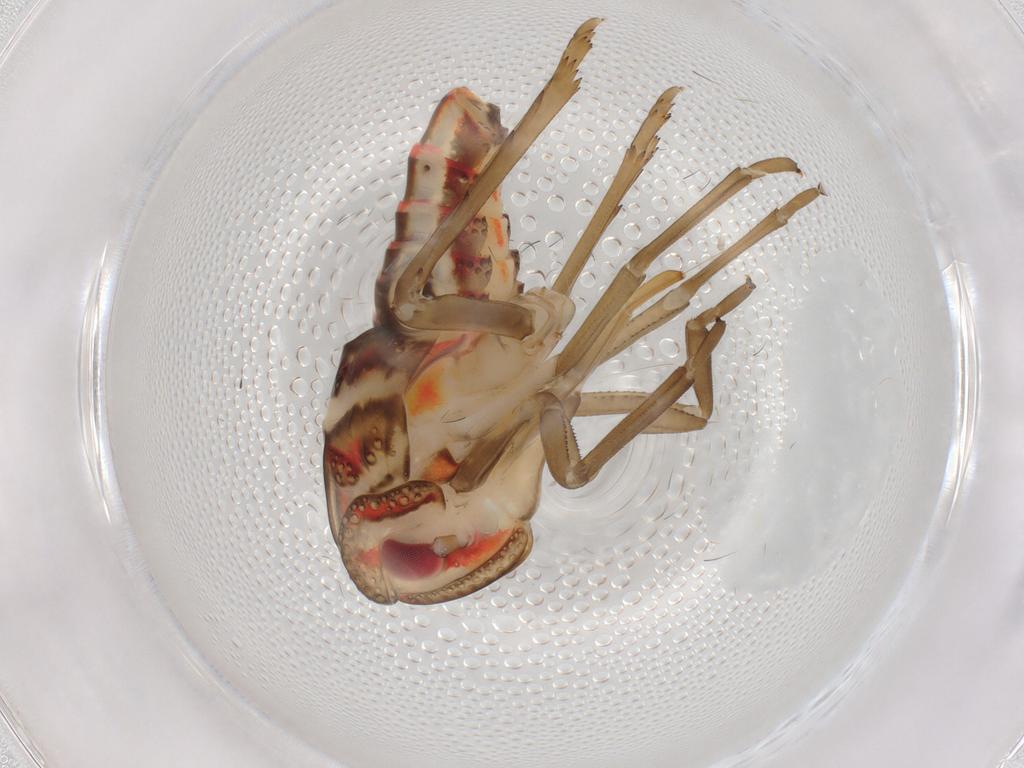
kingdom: Animalia
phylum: Arthropoda
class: Insecta
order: Hemiptera
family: Nogodinidae
